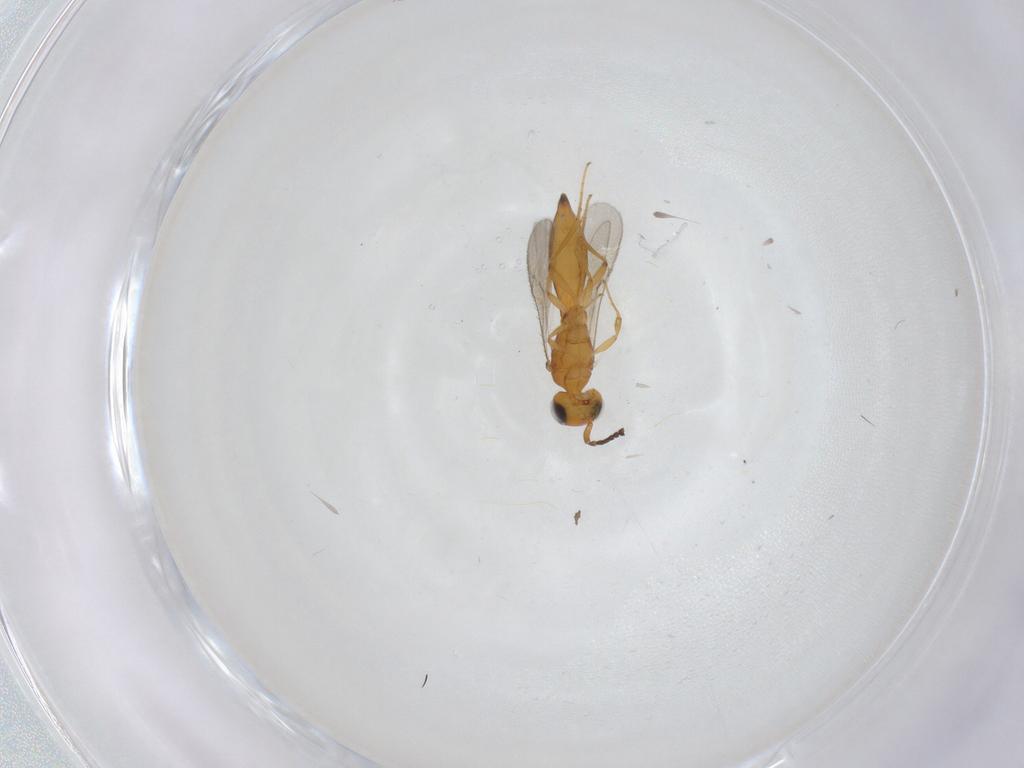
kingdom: Animalia
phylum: Arthropoda
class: Insecta
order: Hymenoptera
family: Scelionidae
